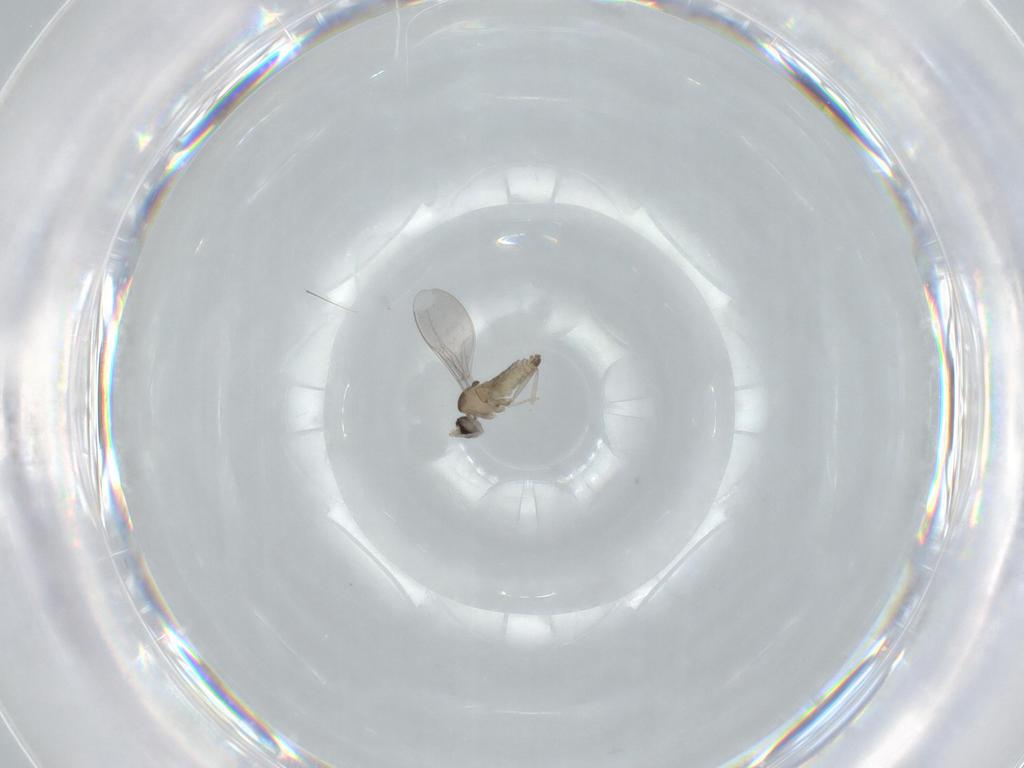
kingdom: Animalia
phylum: Arthropoda
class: Insecta
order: Diptera
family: Cecidomyiidae
